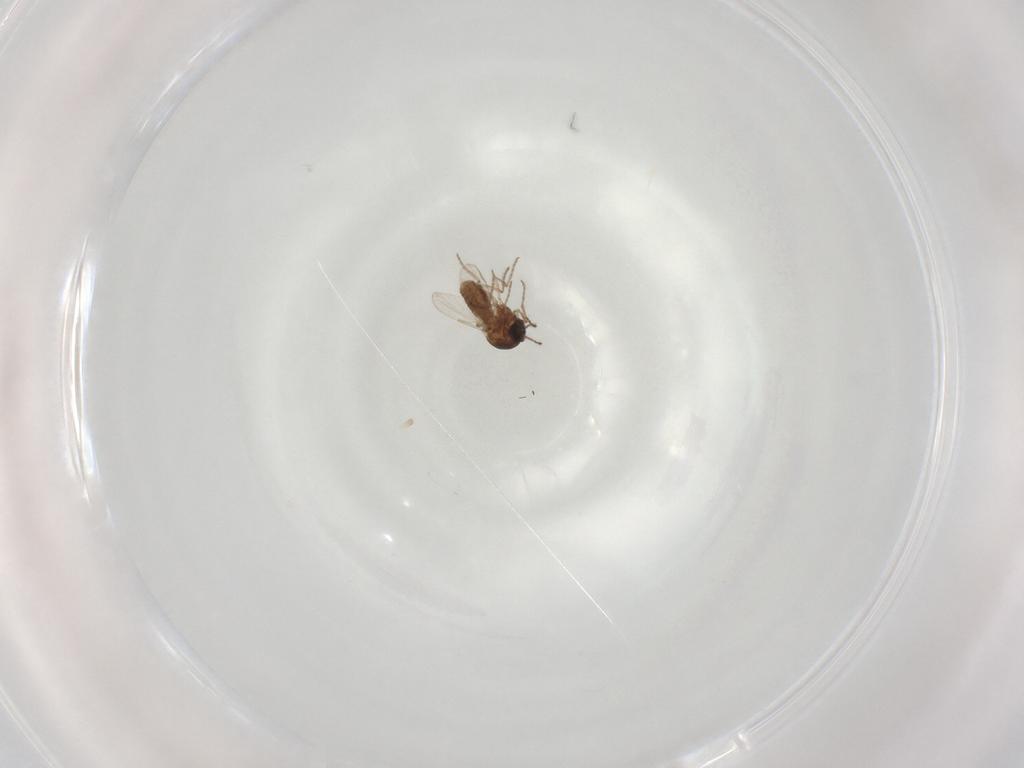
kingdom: Animalia
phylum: Arthropoda
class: Insecta
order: Diptera
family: Ceratopogonidae
